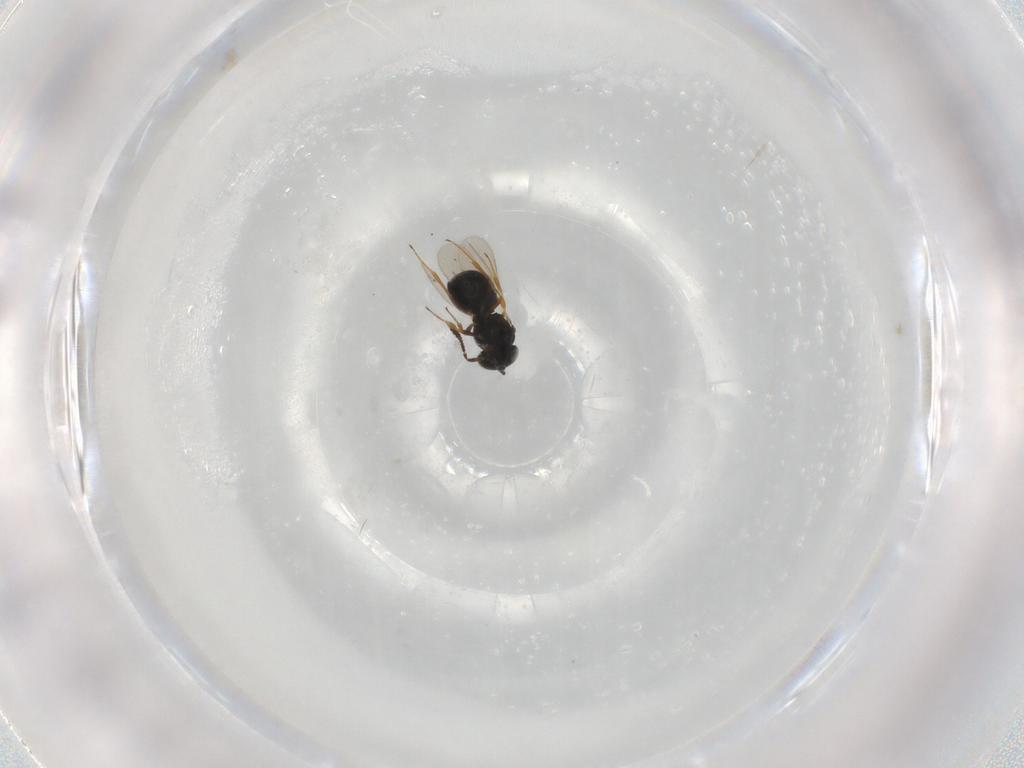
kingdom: Animalia
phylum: Arthropoda
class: Insecta
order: Hymenoptera
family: Scelionidae
